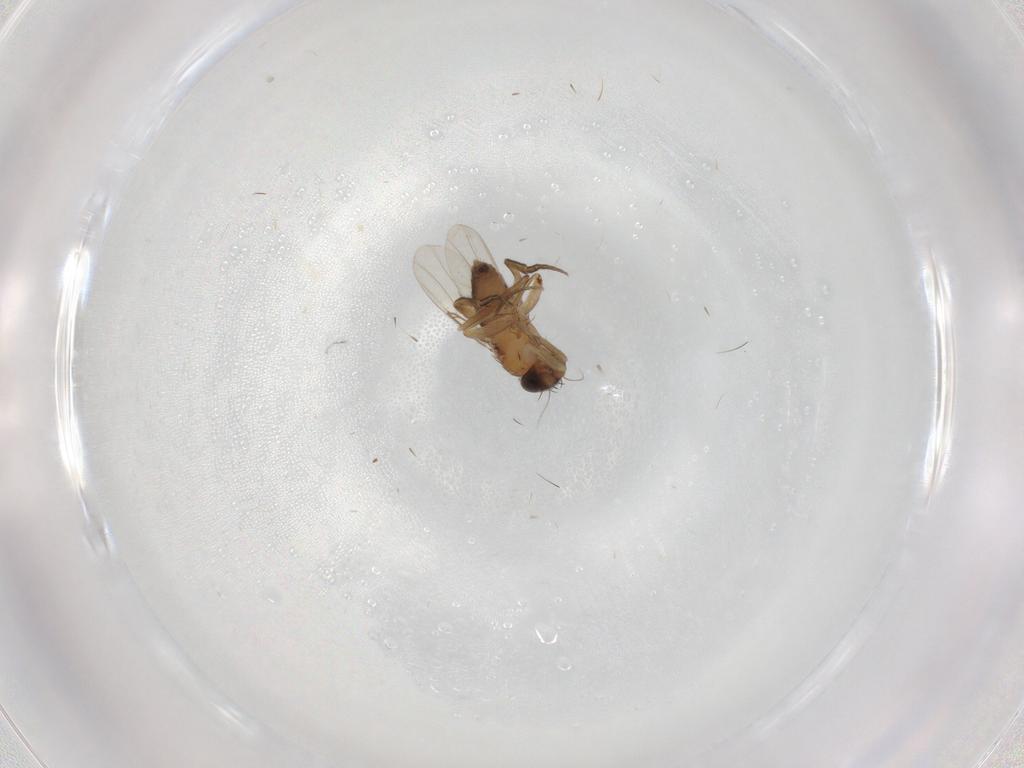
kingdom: Animalia
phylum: Arthropoda
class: Insecta
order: Diptera
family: Phoridae
